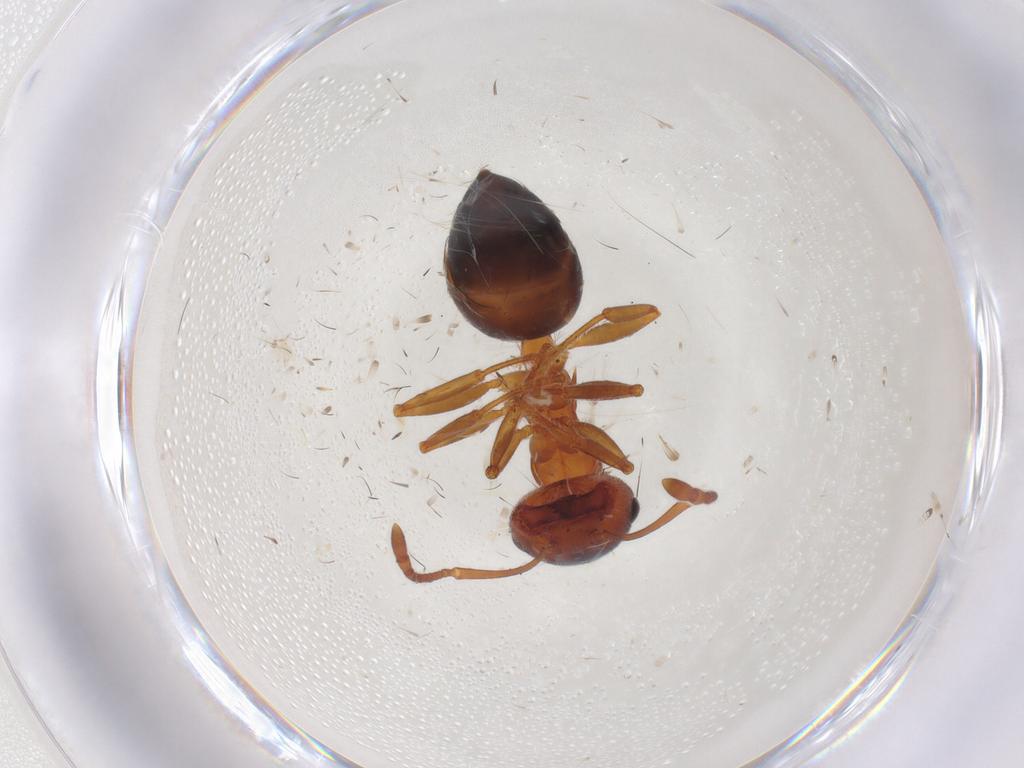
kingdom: Animalia
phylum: Arthropoda
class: Insecta
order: Hymenoptera
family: Formicidae
